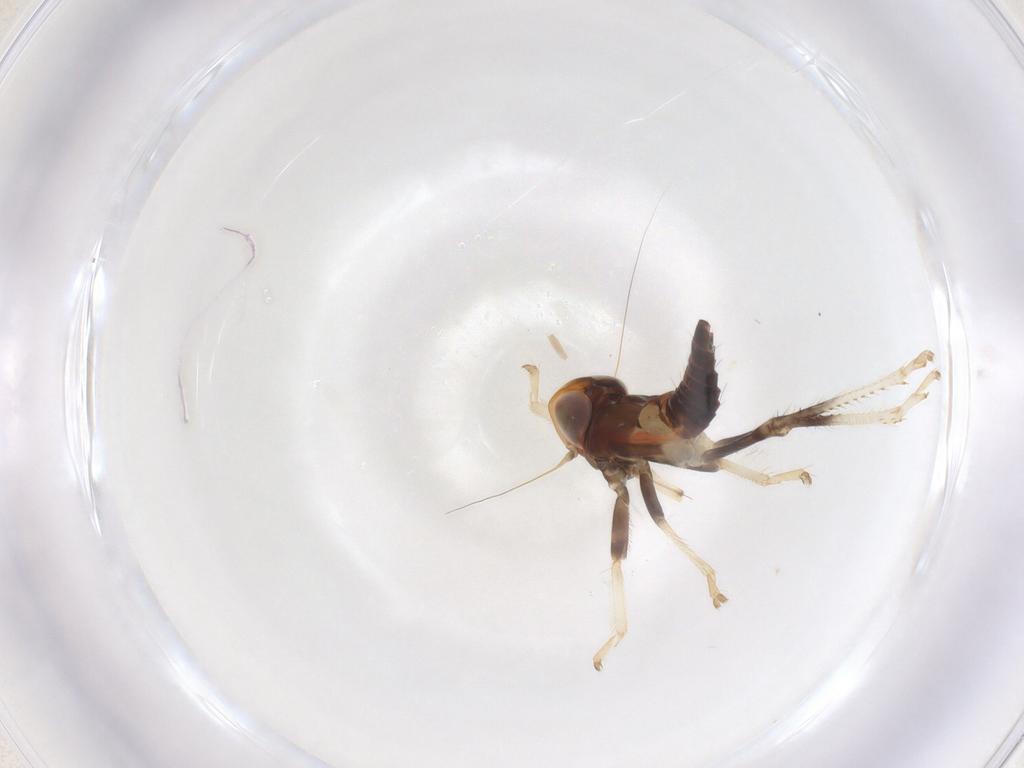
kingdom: Animalia
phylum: Arthropoda
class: Insecta
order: Hemiptera
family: Cicadellidae
